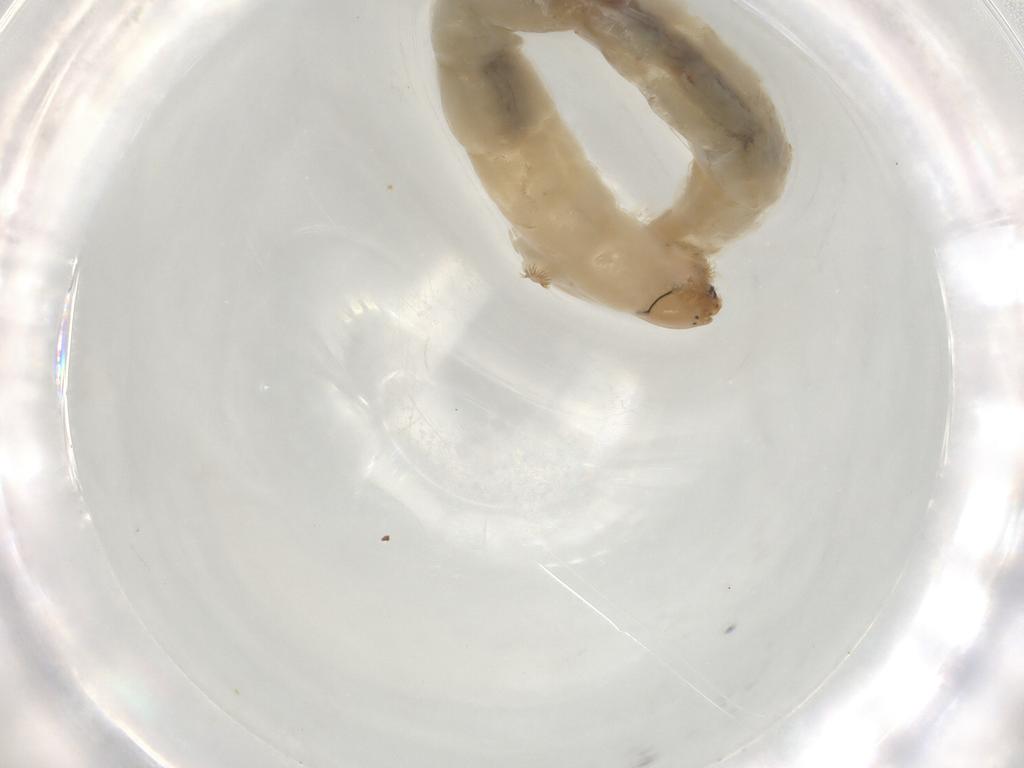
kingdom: Animalia
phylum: Arthropoda
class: Insecta
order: Diptera
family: Chironomidae
